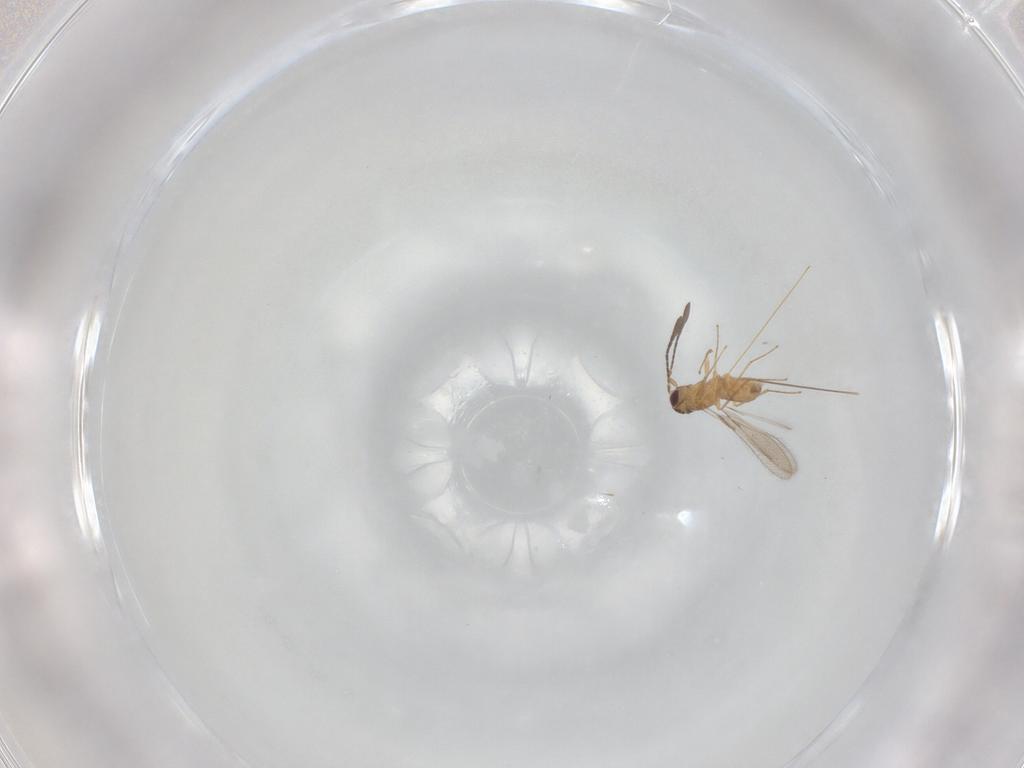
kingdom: Animalia
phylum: Arthropoda
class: Insecta
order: Hymenoptera
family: Mymaridae
